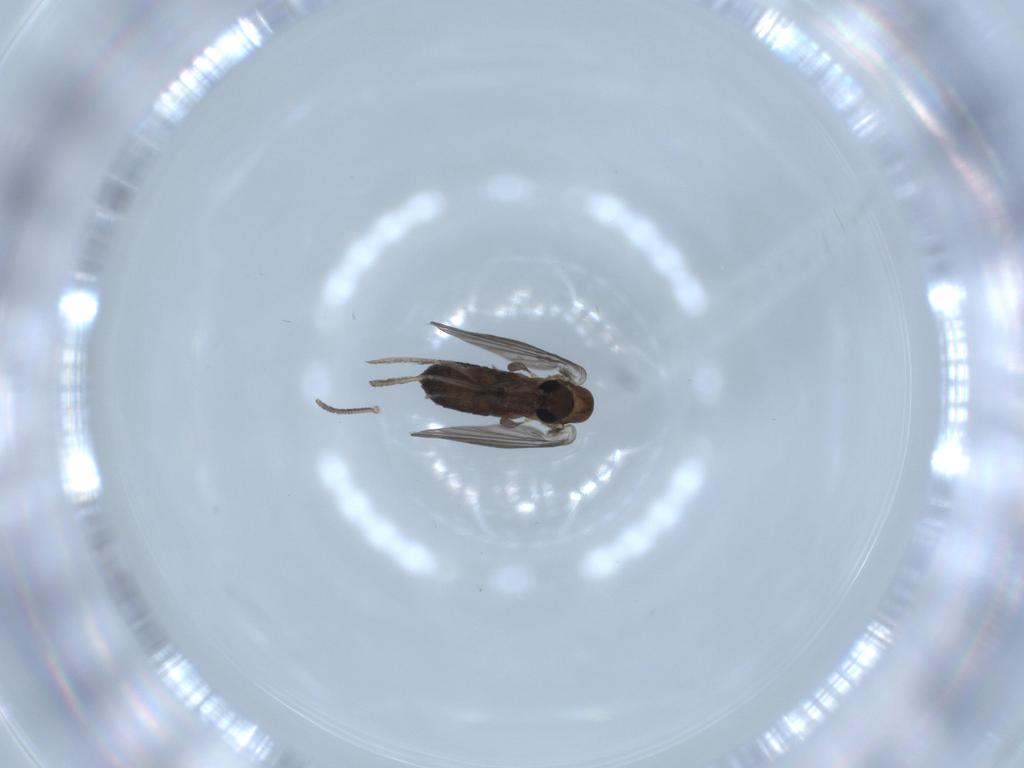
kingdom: Animalia
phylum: Arthropoda
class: Insecta
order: Diptera
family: Psychodidae
